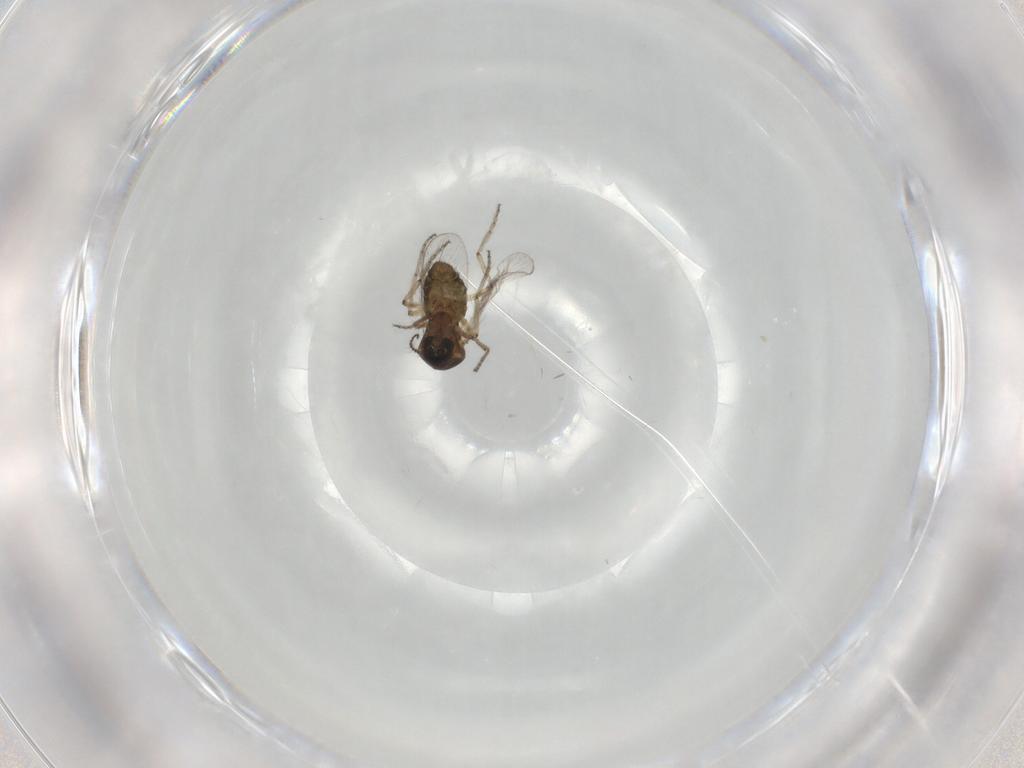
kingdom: Animalia
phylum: Arthropoda
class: Insecta
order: Diptera
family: Ceratopogonidae
